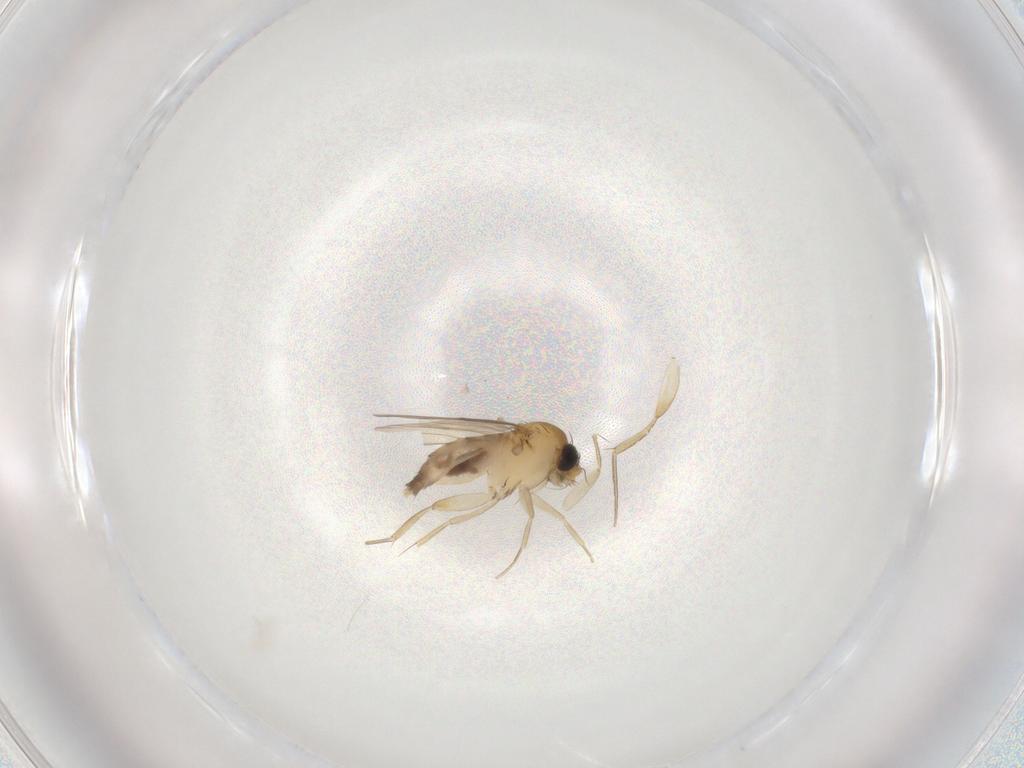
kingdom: Animalia
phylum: Arthropoda
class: Insecta
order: Diptera
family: Phoridae
